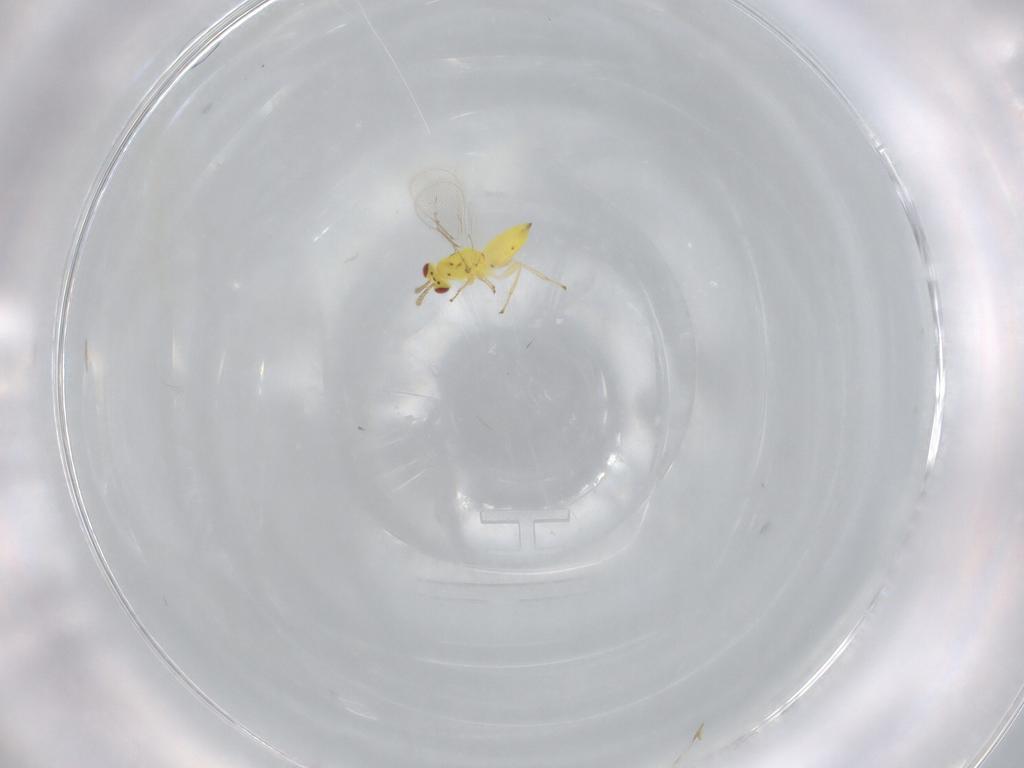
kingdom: Animalia
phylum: Arthropoda
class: Insecta
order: Hymenoptera
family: Eulophidae
